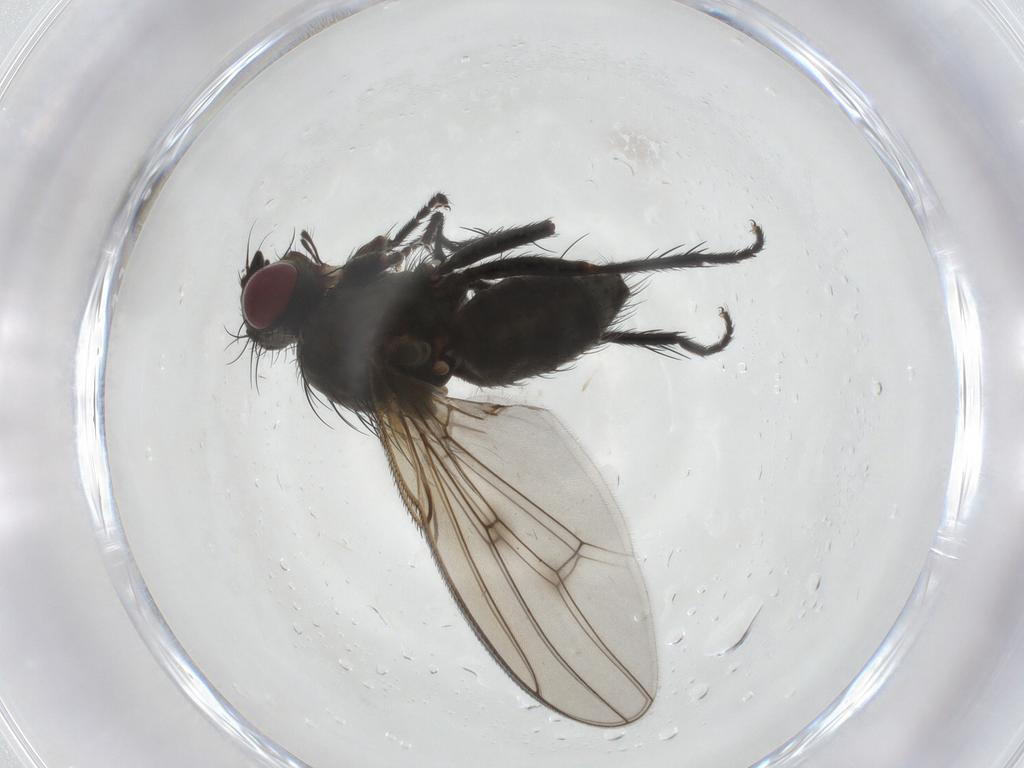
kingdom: Animalia
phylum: Arthropoda
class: Insecta
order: Diptera
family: Muscidae
